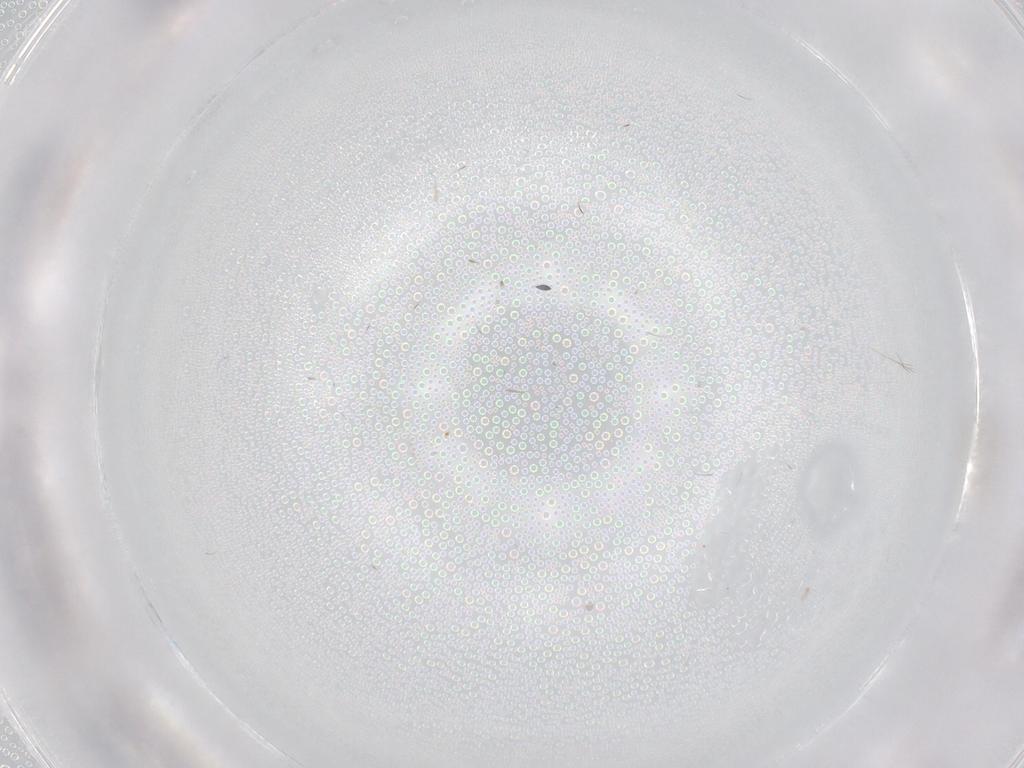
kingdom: Animalia
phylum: Arthropoda
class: Insecta
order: Diptera
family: Cecidomyiidae
